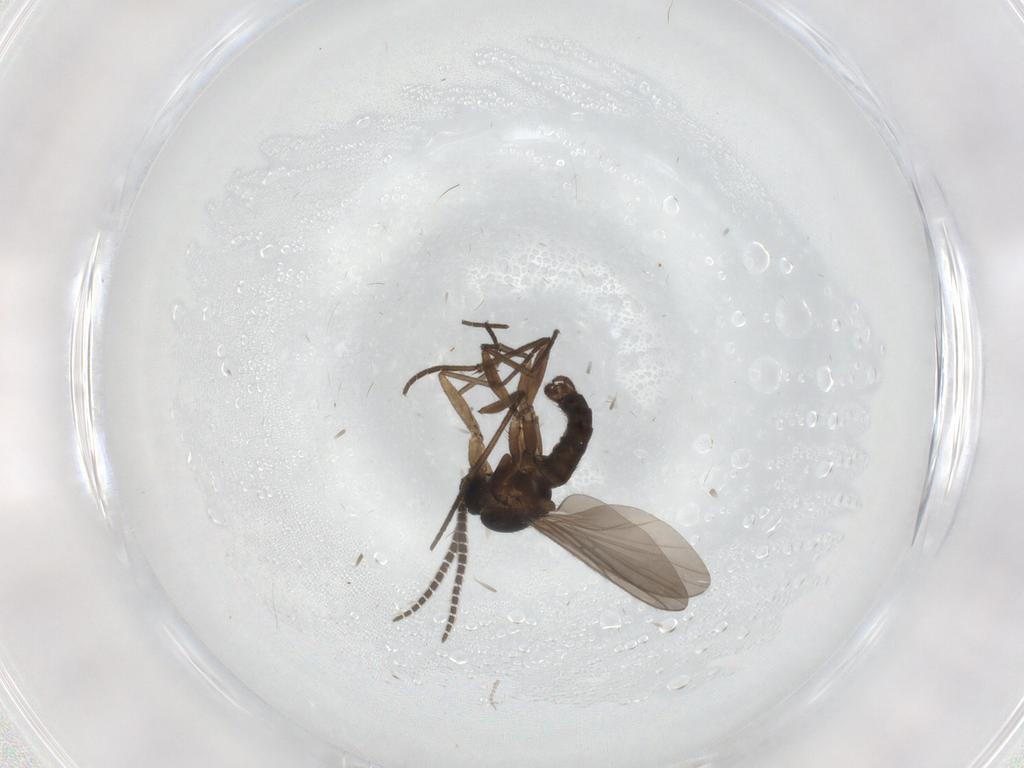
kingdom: Animalia
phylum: Arthropoda
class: Insecta
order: Diptera
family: Sciaridae
